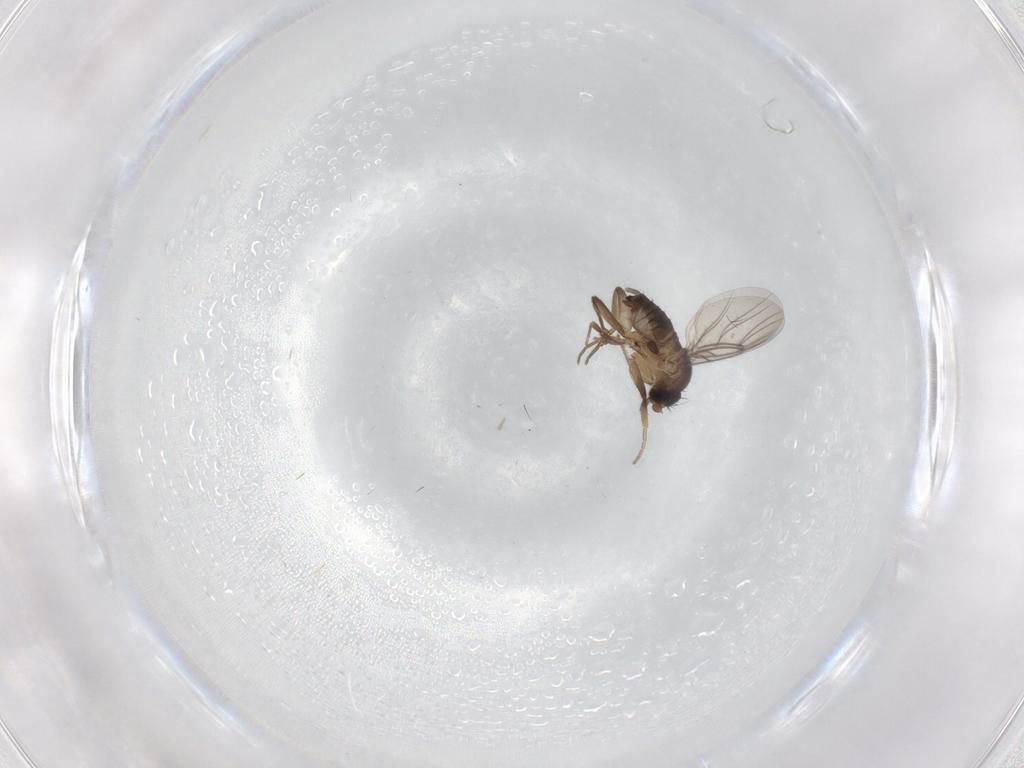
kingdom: Animalia
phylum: Arthropoda
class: Insecta
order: Diptera
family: Phoridae
